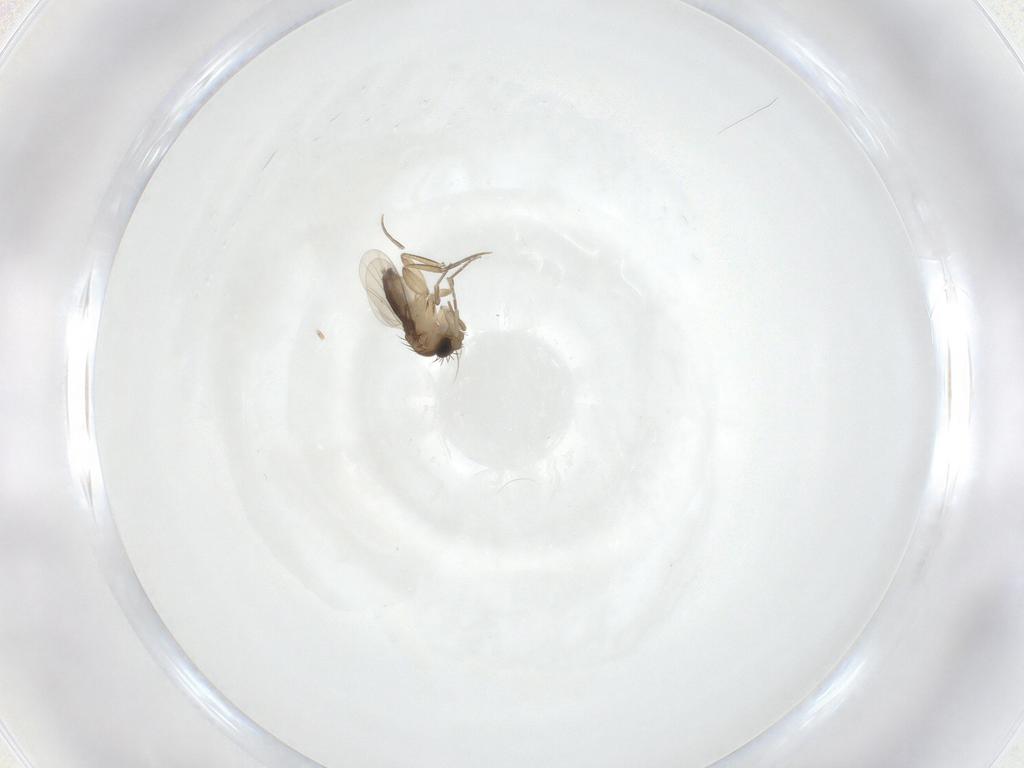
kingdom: Animalia
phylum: Arthropoda
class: Insecta
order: Diptera
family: Phoridae
